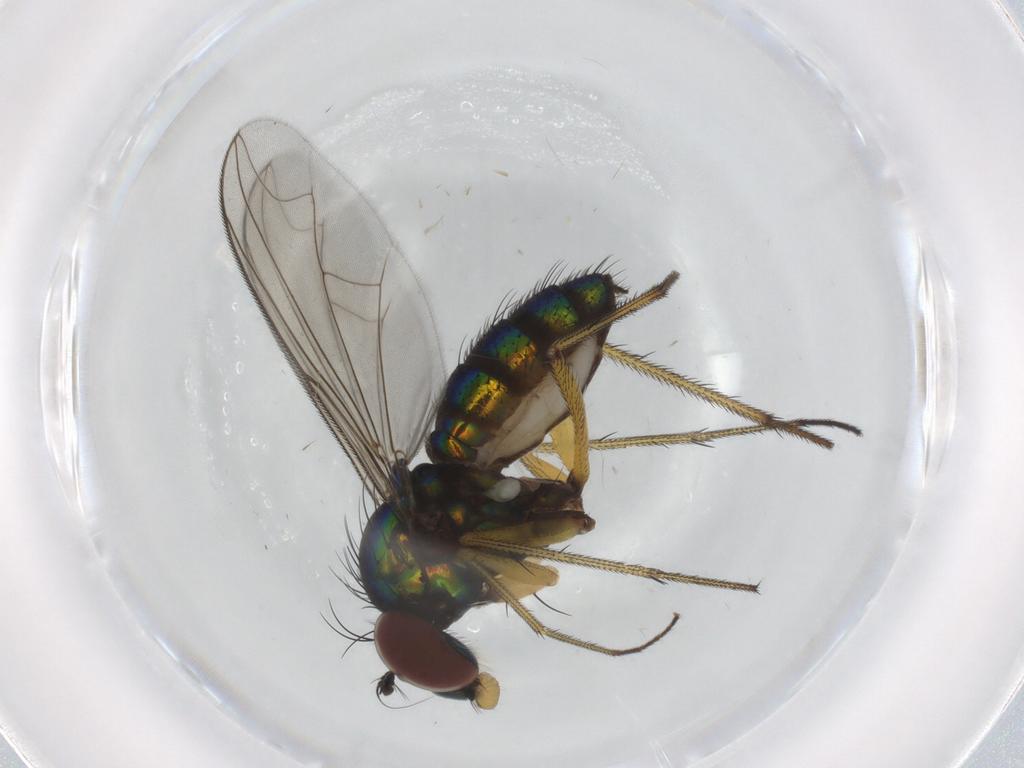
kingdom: Animalia
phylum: Arthropoda
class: Insecta
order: Diptera
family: Dolichopodidae
